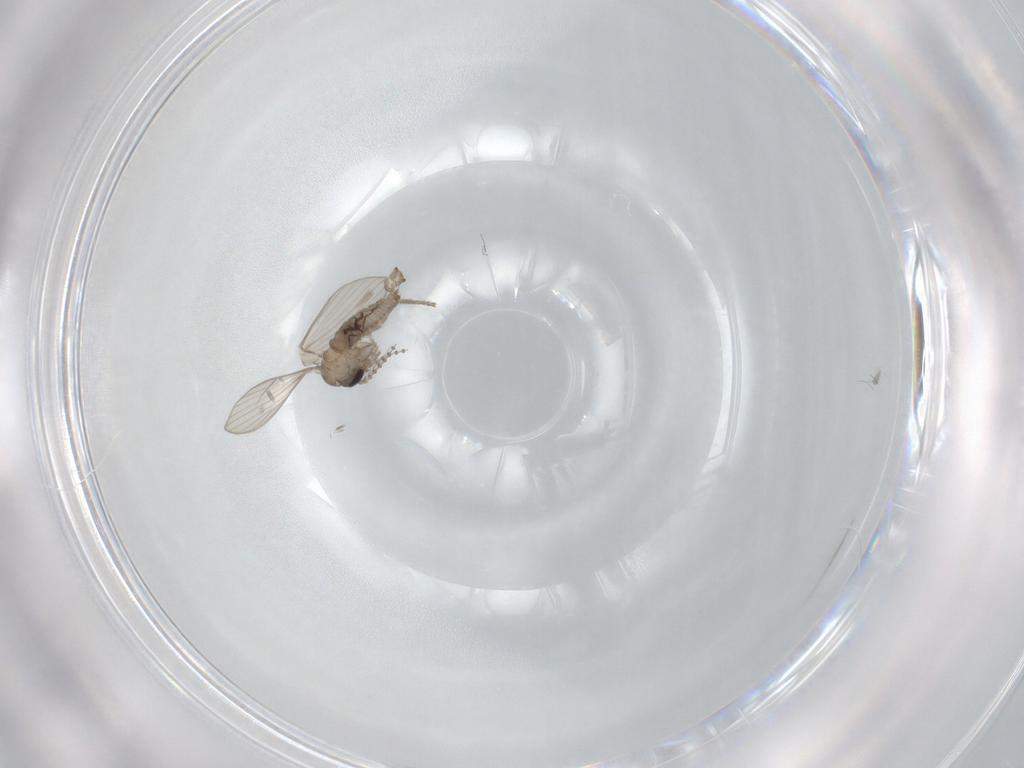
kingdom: Animalia
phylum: Arthropoda
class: Insecta
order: Diptera
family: Psychodidae
